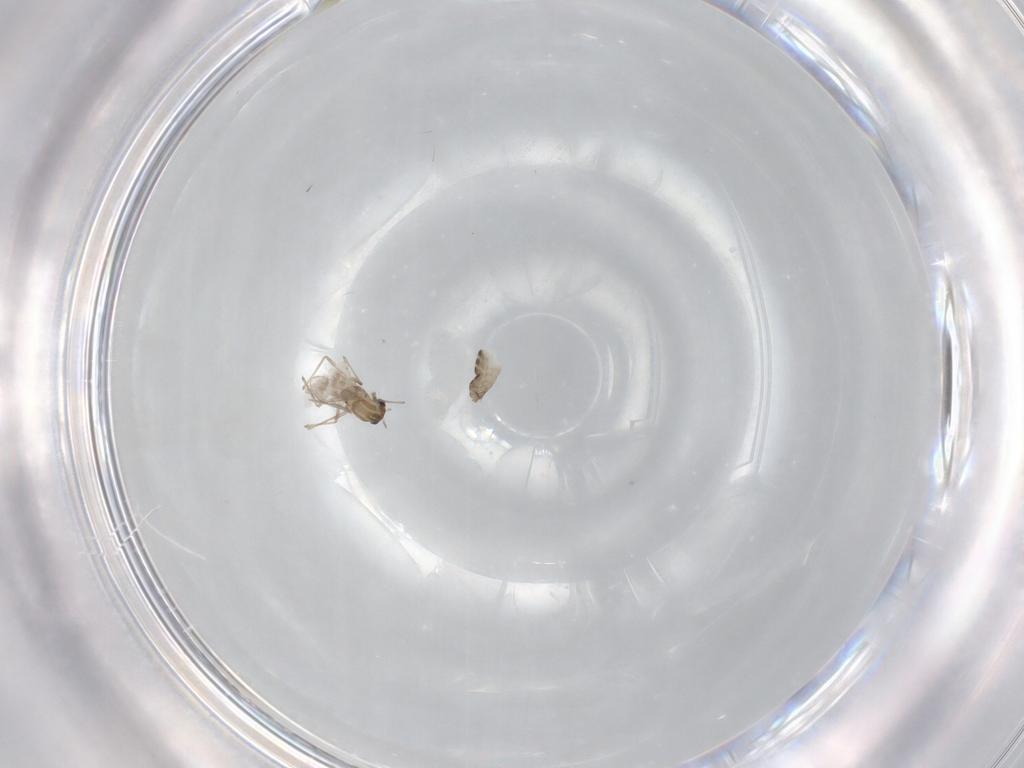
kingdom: Animalia
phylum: Arthropoda
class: Insecta
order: Diptera
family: Chironomidae
